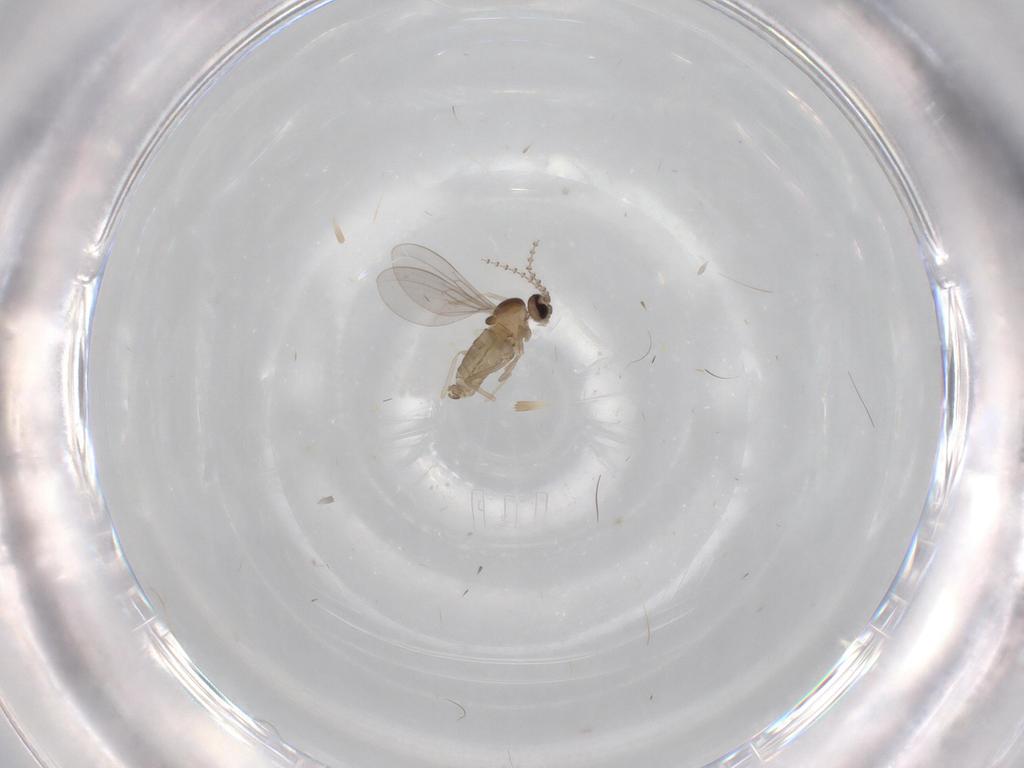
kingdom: Animalia
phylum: Arthropoda
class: Insecta
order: Diptera
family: Cecidomyiidae
